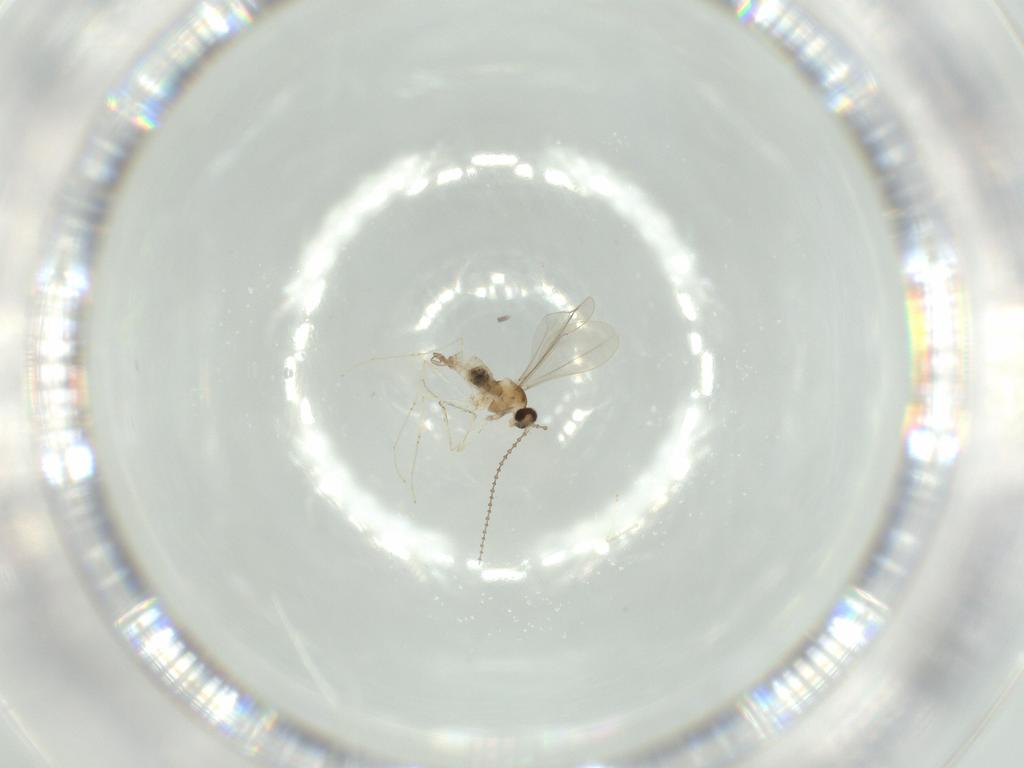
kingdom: Animalia
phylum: Arthropoda
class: Insecta
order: Diptera
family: Cecidomyiidae
